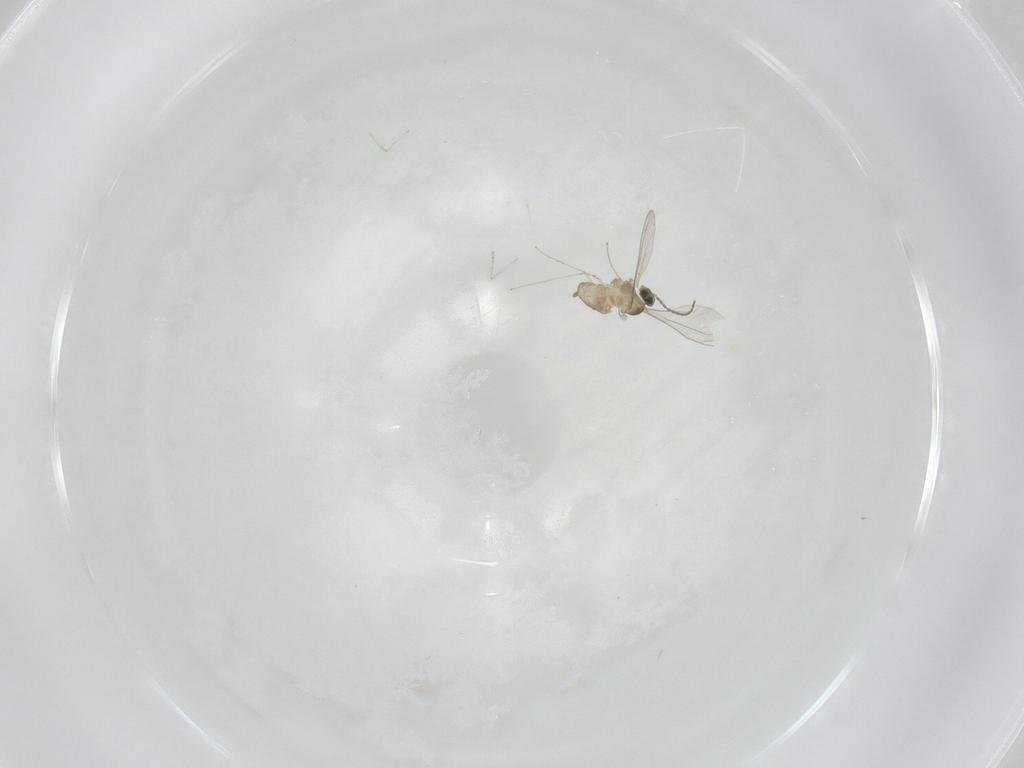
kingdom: Animalia
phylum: Arthropoda
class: Insecta
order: Diptera
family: Cecidomyiidae
